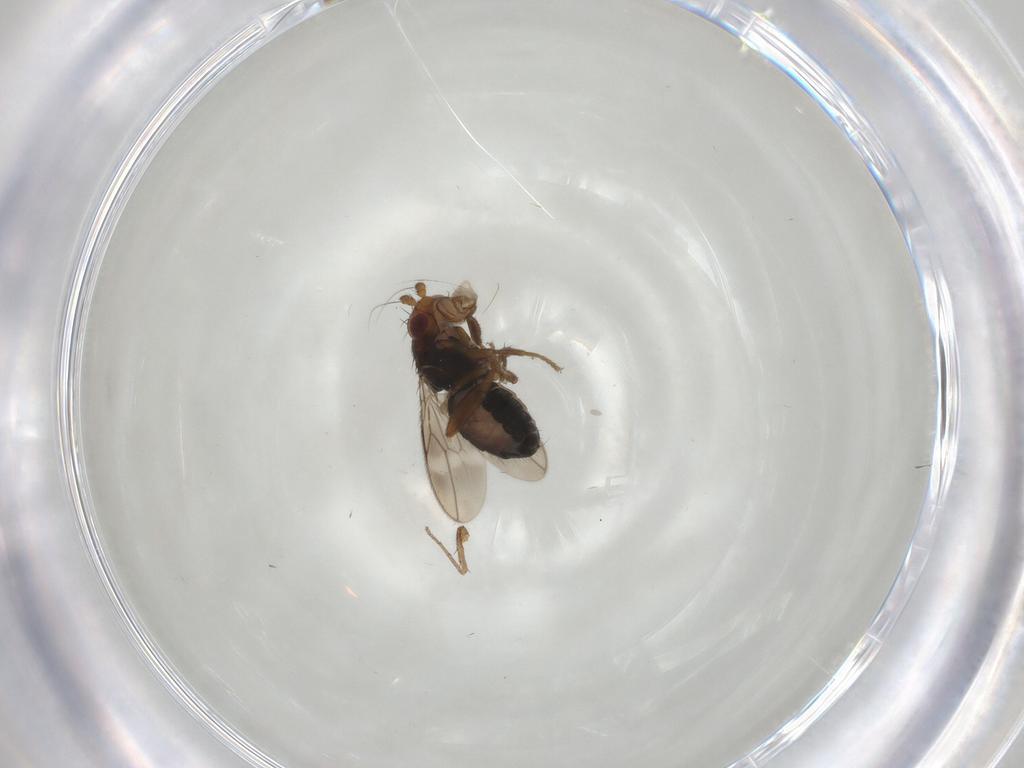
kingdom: Animalia
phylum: Arthropoda
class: Insecta
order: Diptera
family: Sphaeroceridae
